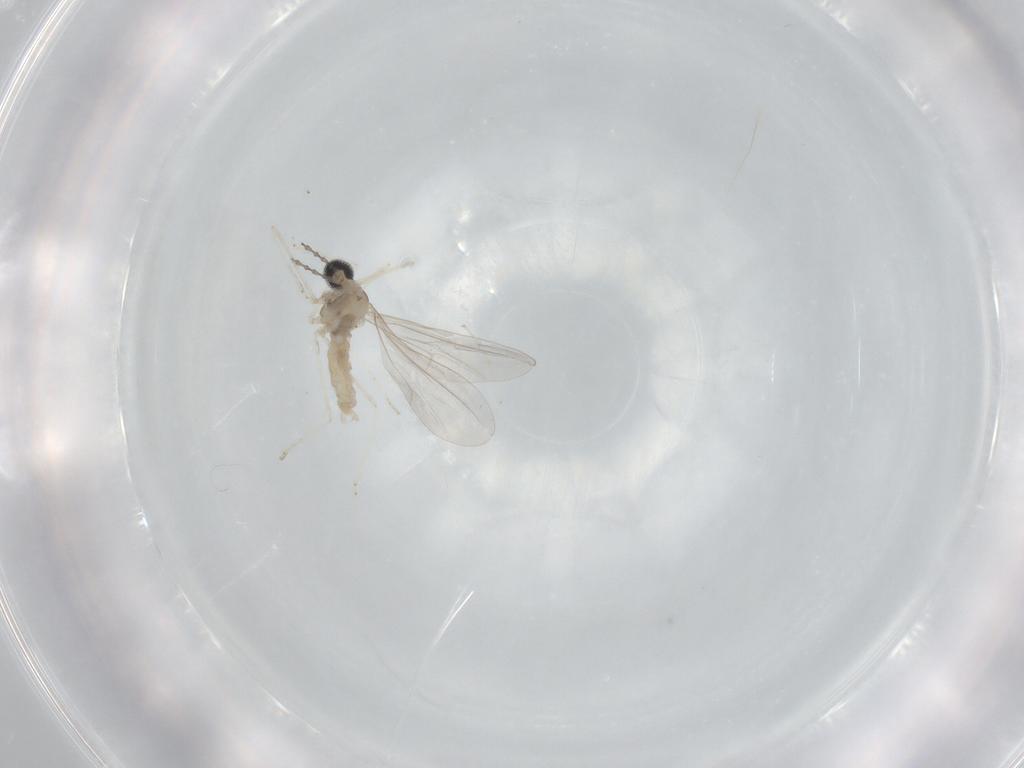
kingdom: Animalia
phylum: Arthropoda
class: Insecta
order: Diptera
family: Cecidomyiidae
